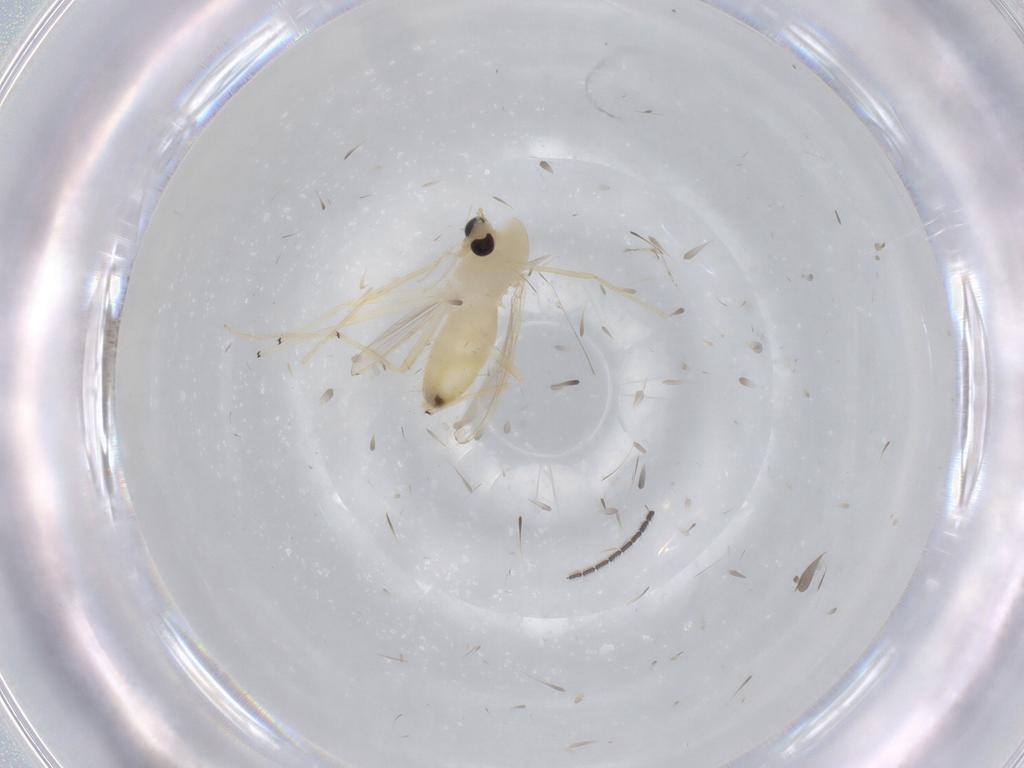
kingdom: Animalia
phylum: Arthropoda
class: Insecta
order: Diptera
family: Chironomidae
